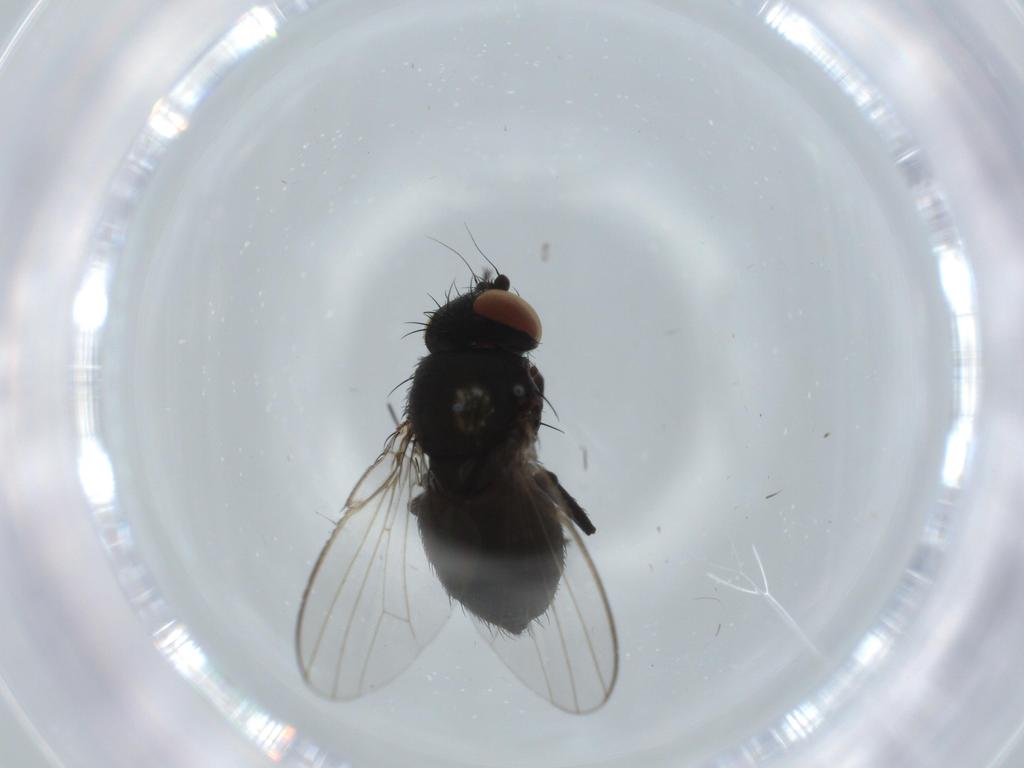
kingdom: Animalia
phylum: Arthropoda
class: Insecta
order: Diptera
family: Milichiidae
